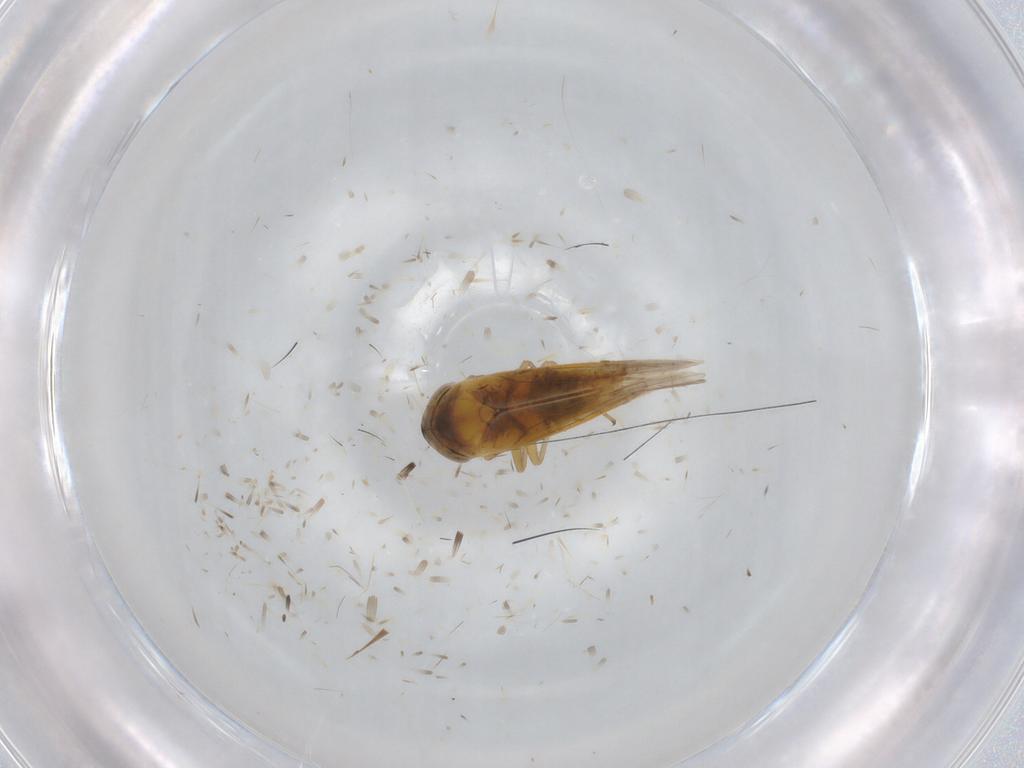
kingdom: Animalia
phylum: Arthropoda
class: Insecta
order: Hemiptera
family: Cicadellidae
